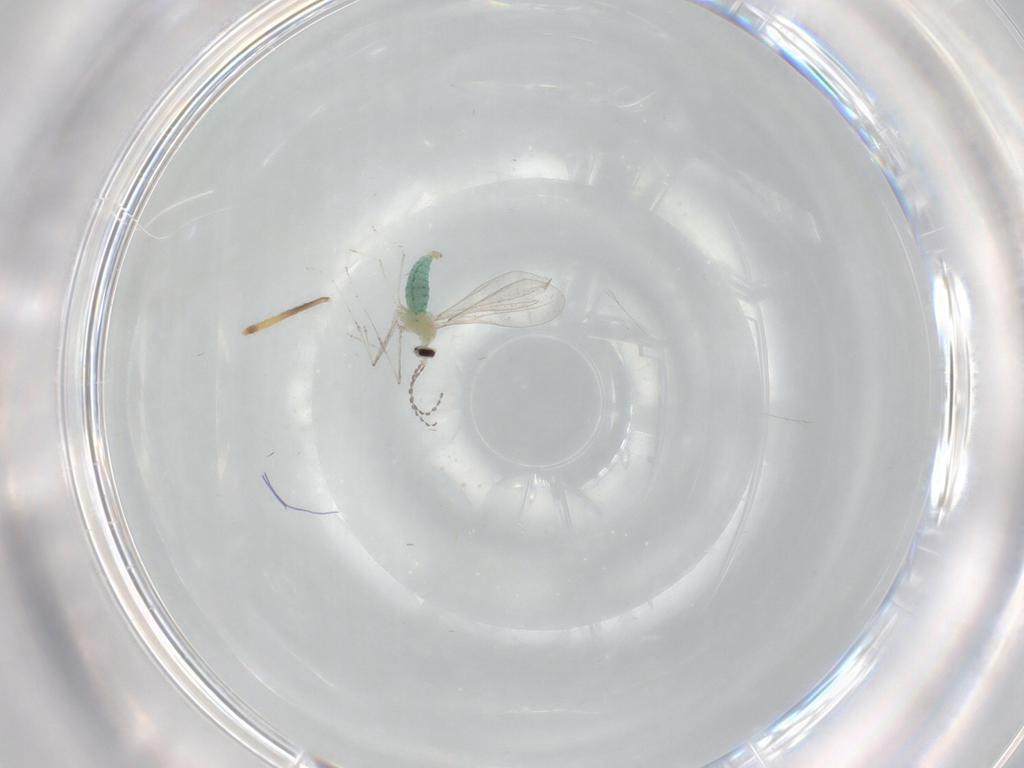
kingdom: Animalia
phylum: Arthropoda
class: Insecta
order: Diptera
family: Cecidomyiidae
